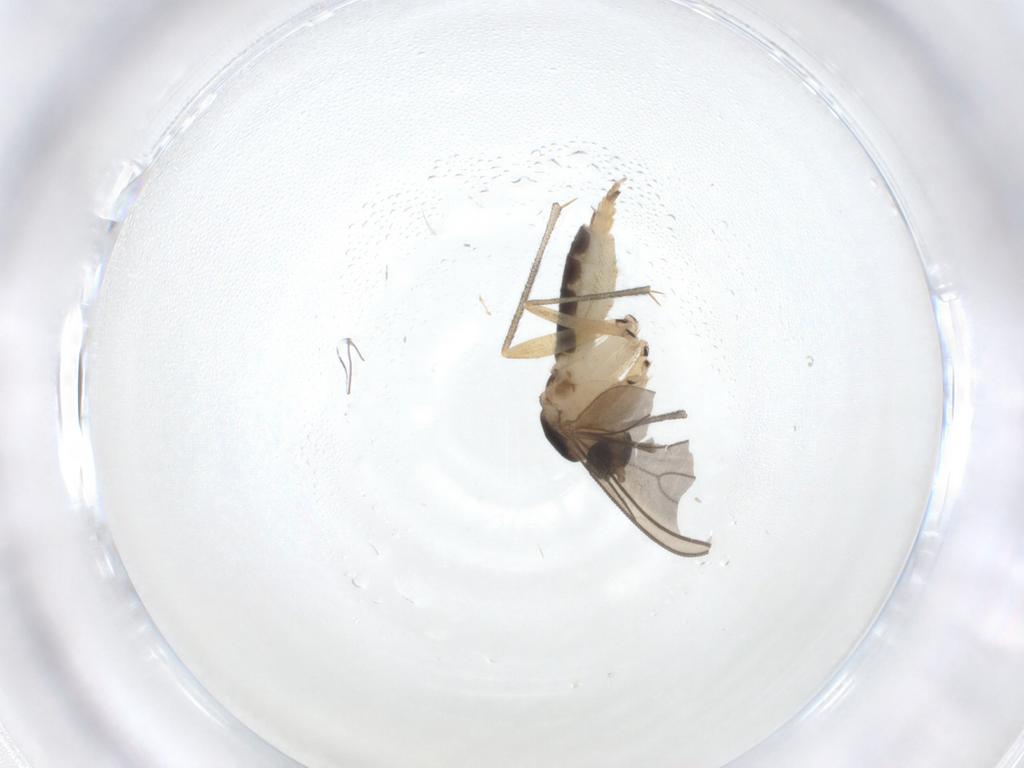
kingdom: Animalia
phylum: Arthropoda
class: Insecta
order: Diptera
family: Sciaridae
